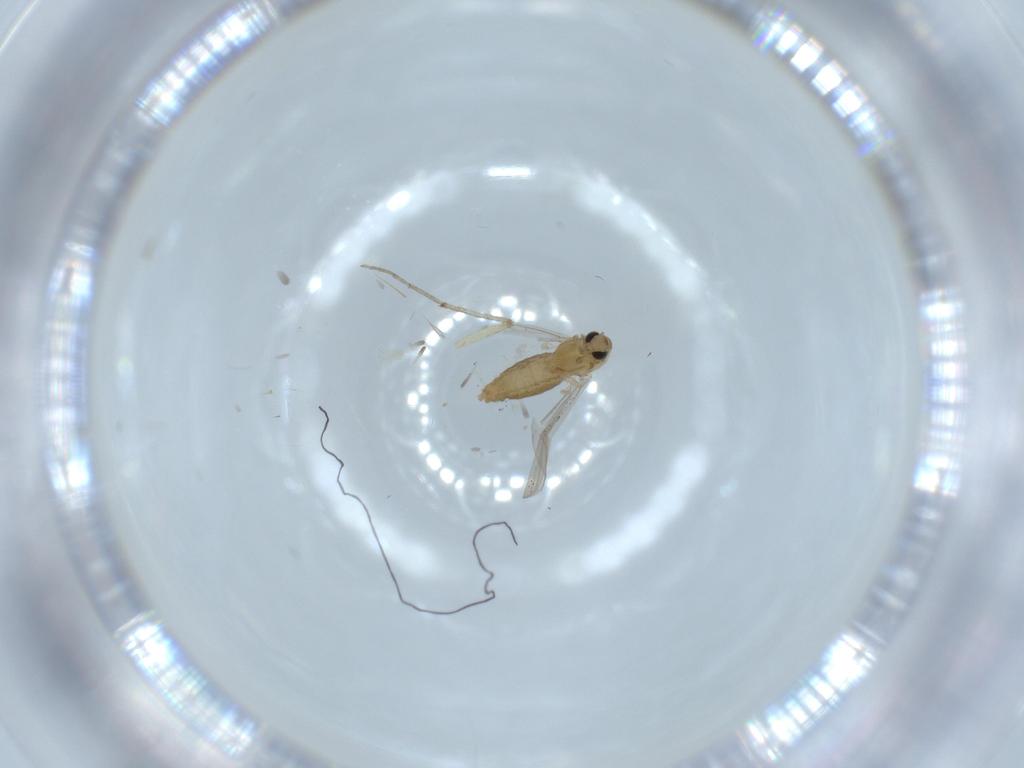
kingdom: Animalia
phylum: Arthropoda
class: Insecta
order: Diptera
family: Chironomidae
